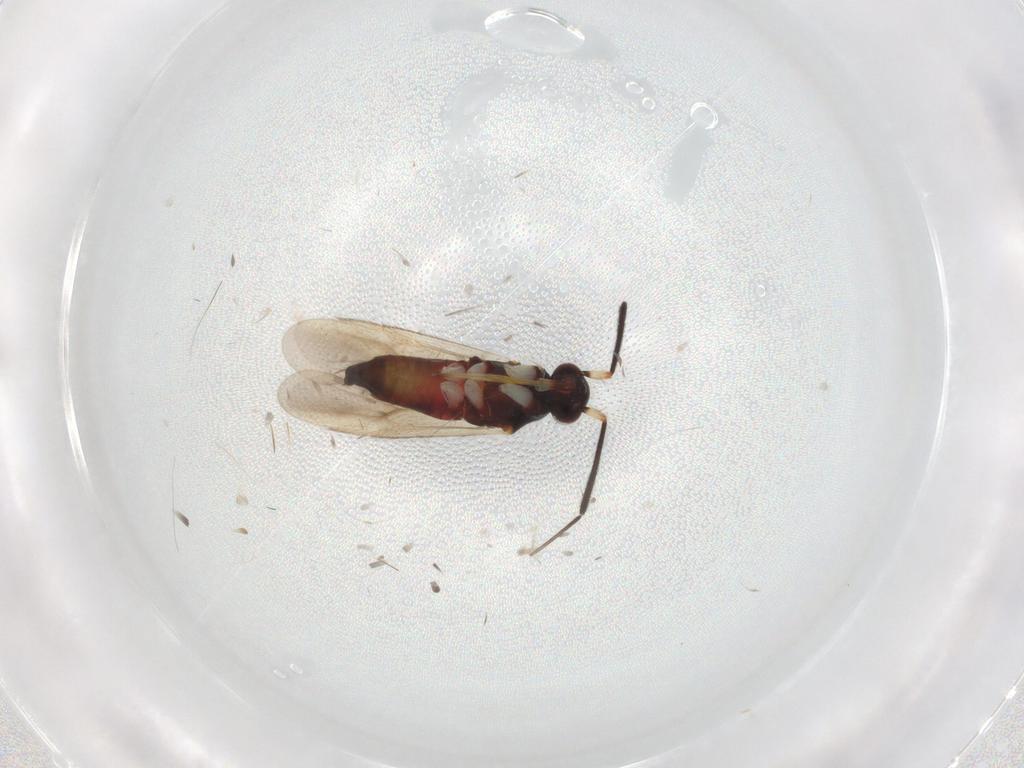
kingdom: Animalia
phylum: Arthropoda
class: Insecta
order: Hemiptera
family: Miridae
